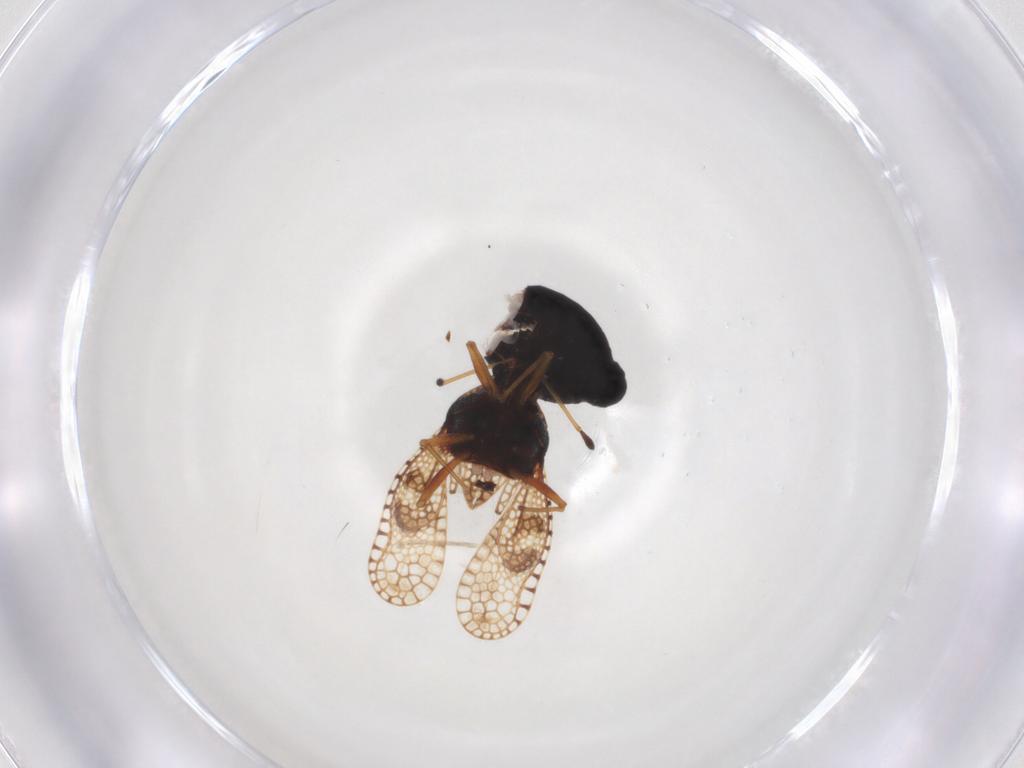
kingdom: Animalia
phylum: Arthropoda
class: Insecta
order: Hemiptera
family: Tingidae
